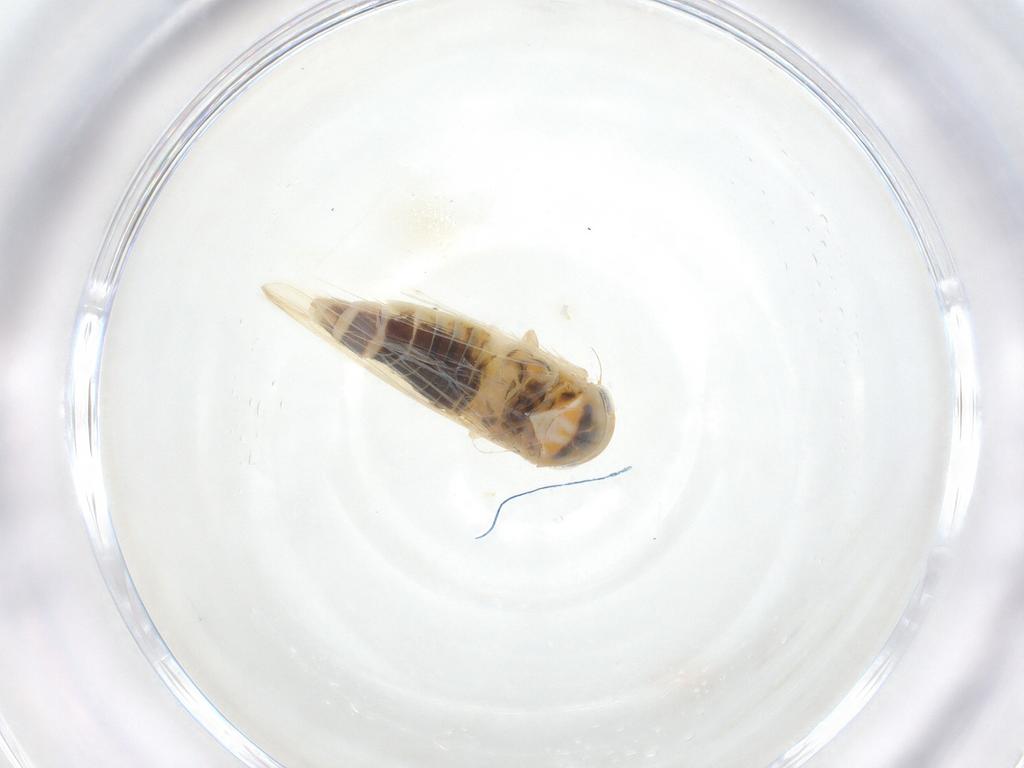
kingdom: Animalia
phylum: Arthropoda
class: Insecta
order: Hemiptera
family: Cicadellidae
